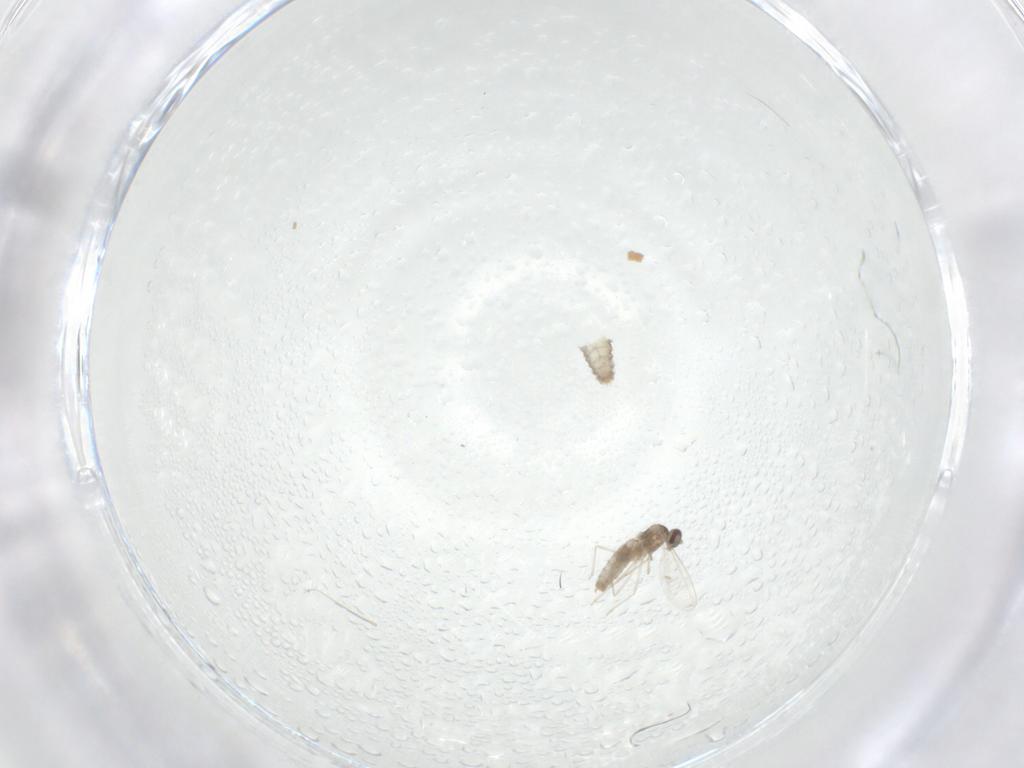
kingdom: Animalia
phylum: Arthropoda
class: Insecta
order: Diptera
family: Cecidomyiidae
